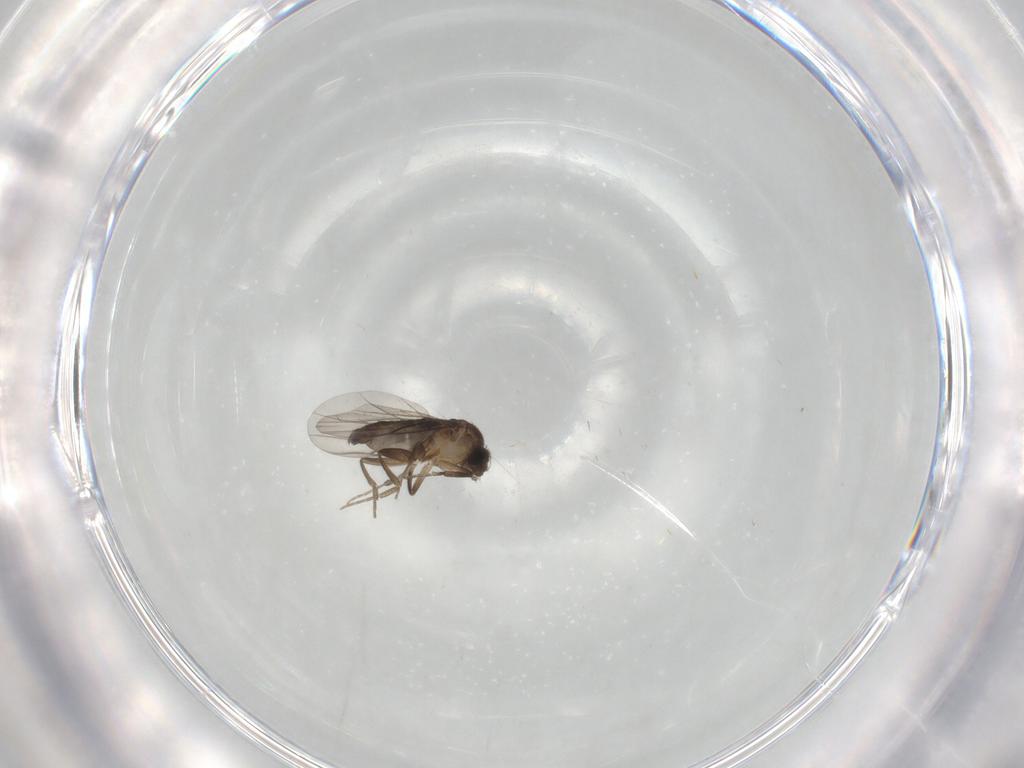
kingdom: Animalia
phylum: Arthropoda
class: Insecta
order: Diptera
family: Phoridae
